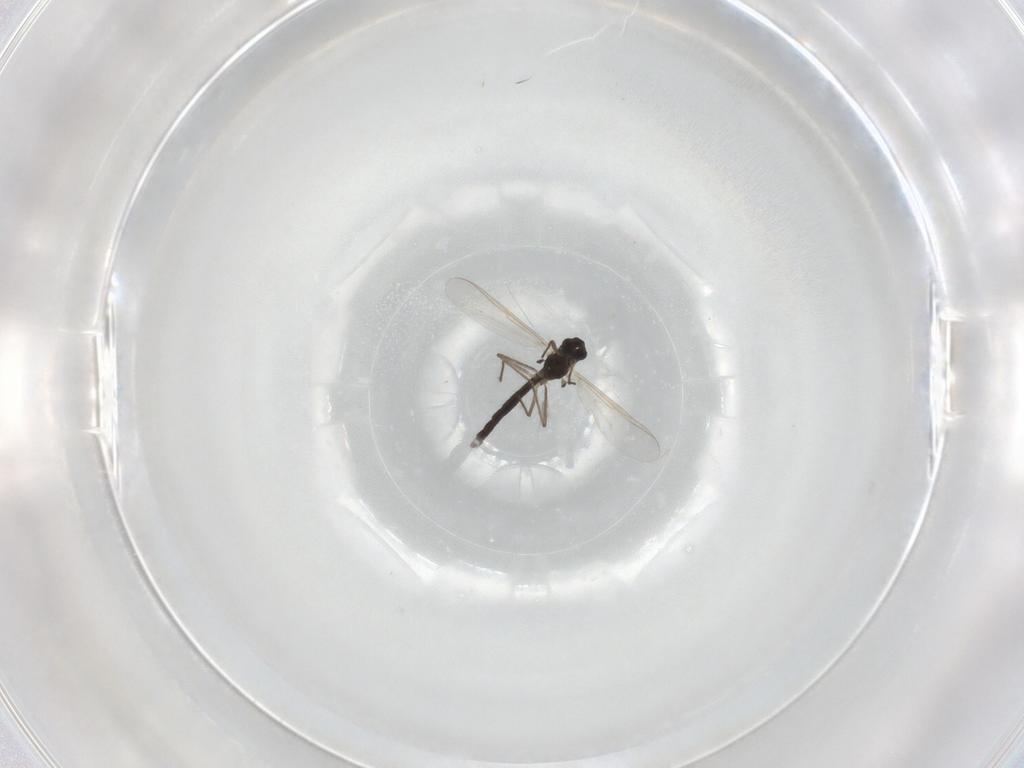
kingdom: Animalia
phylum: Arthropoda
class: Insecta
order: Diptera
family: Chironomidae
